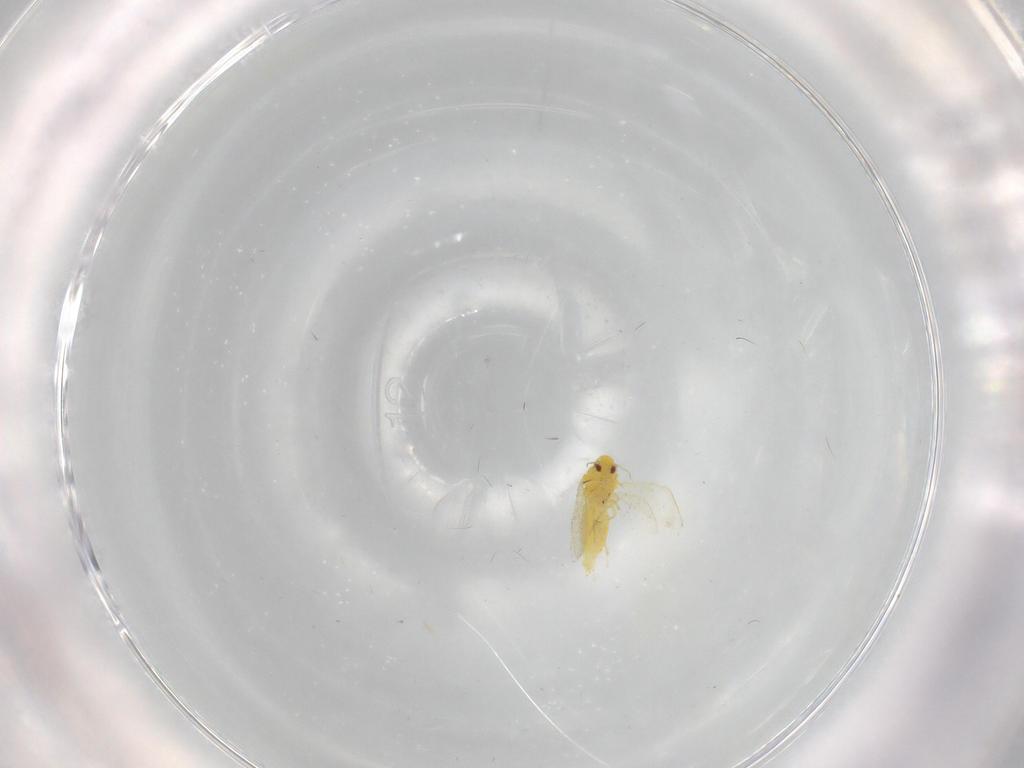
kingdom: Animalia
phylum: Arthropoda
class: Insecta
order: Hemiptera
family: Aleyrodidae
